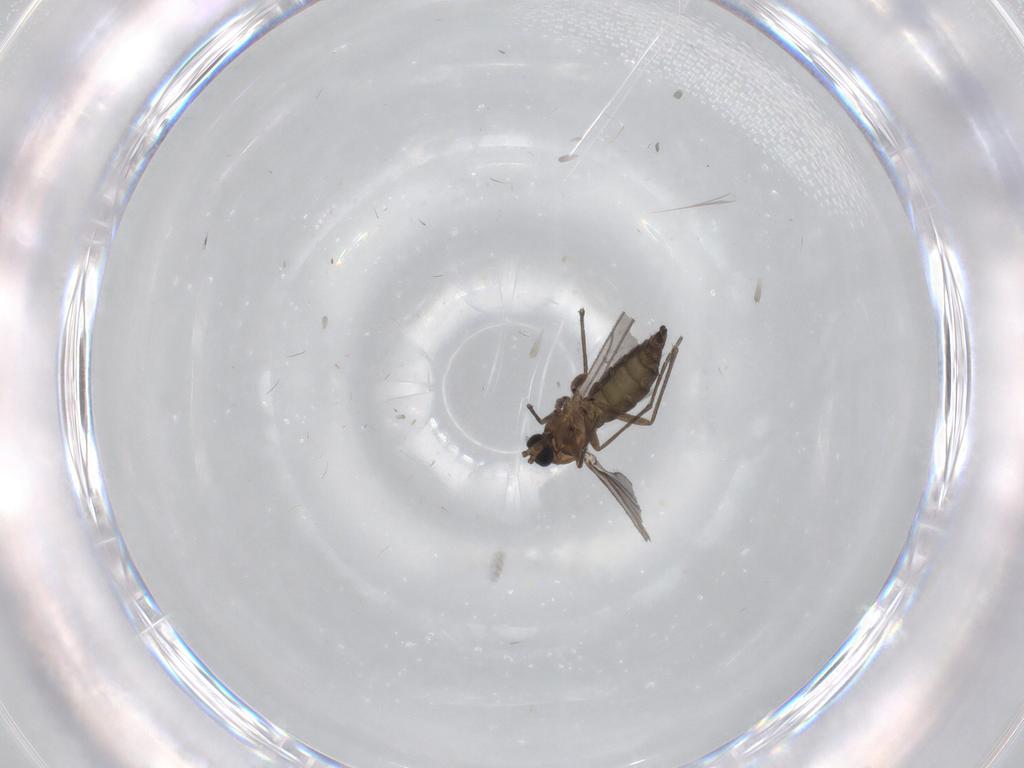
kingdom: Animalia
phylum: Arthropoda
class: Insecta
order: Diptera
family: Sciaridae
